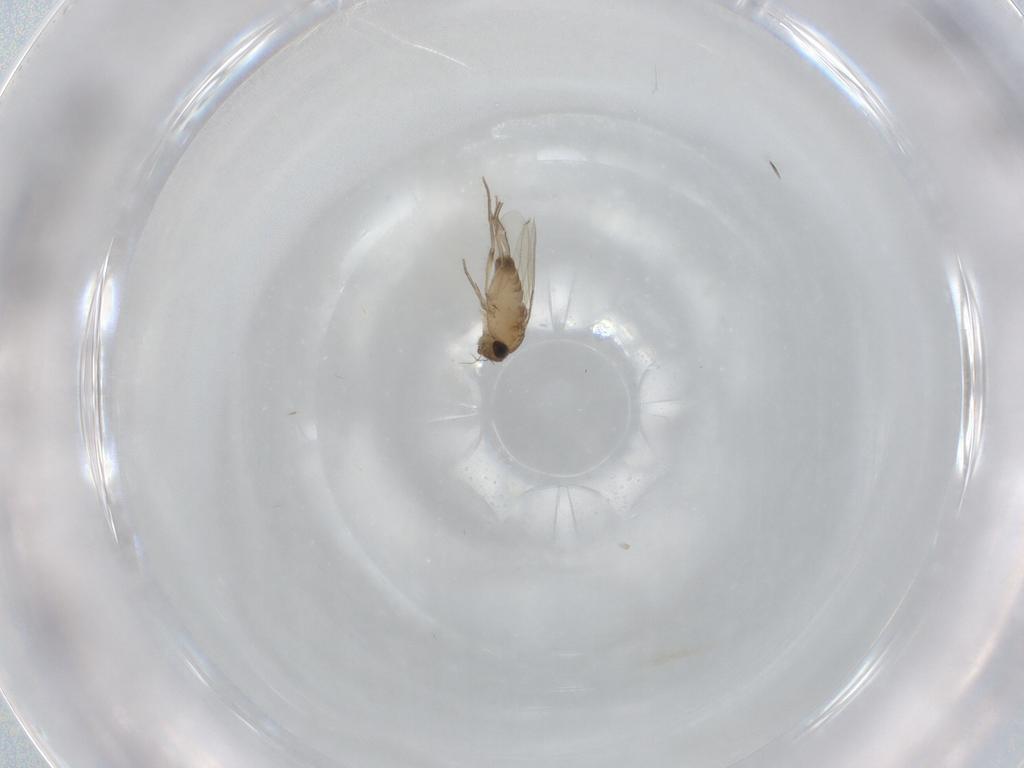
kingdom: Animalia
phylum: Arthropoda
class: Insecta
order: Diptera
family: Phoridae
